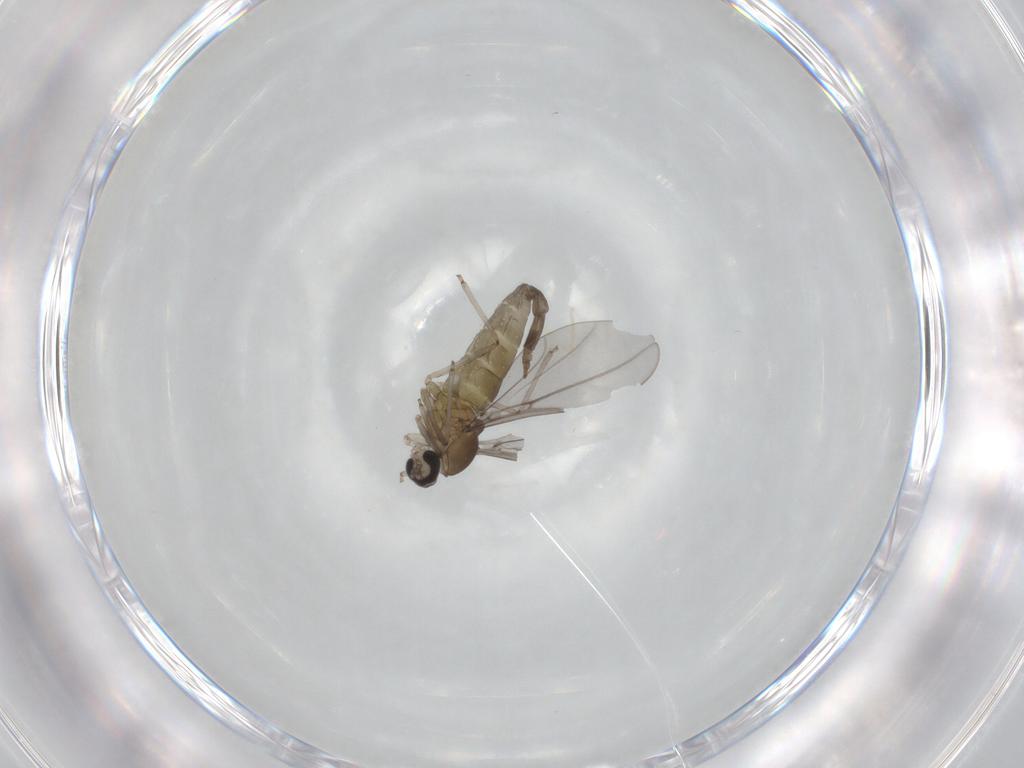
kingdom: Animalia
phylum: Arthropoda
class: Insecta
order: Diptera
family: Cecidomyiidae
